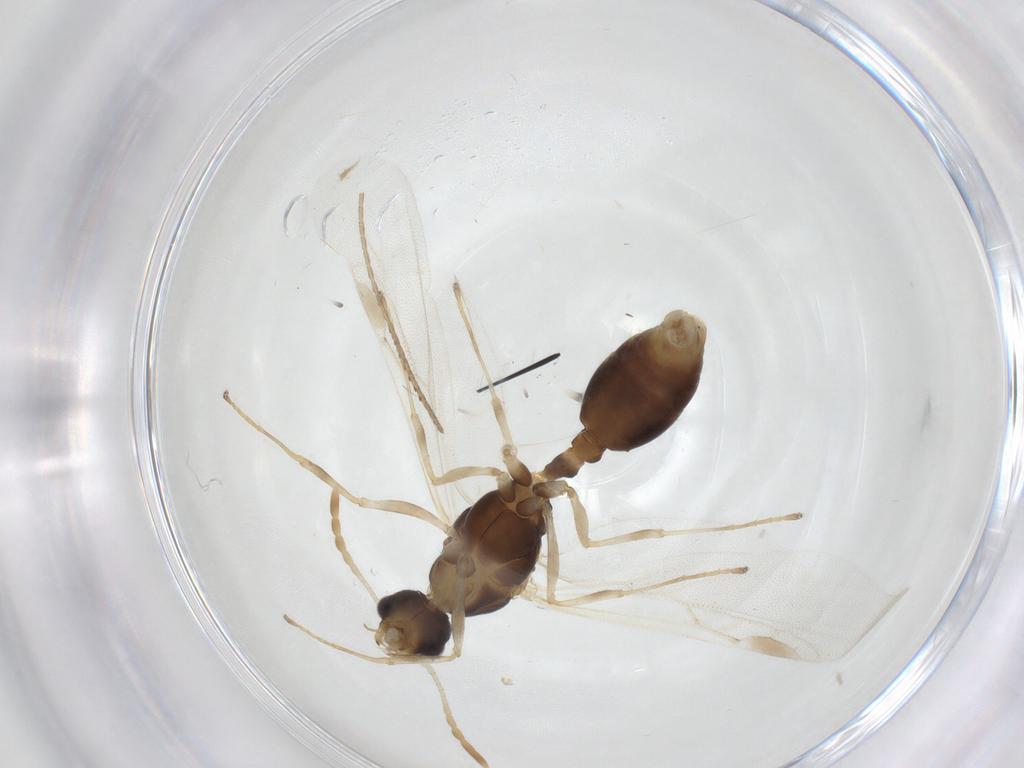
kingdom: Animalia
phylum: Arthropoda
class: Insecta
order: Hymenoptera
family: Formicidae
